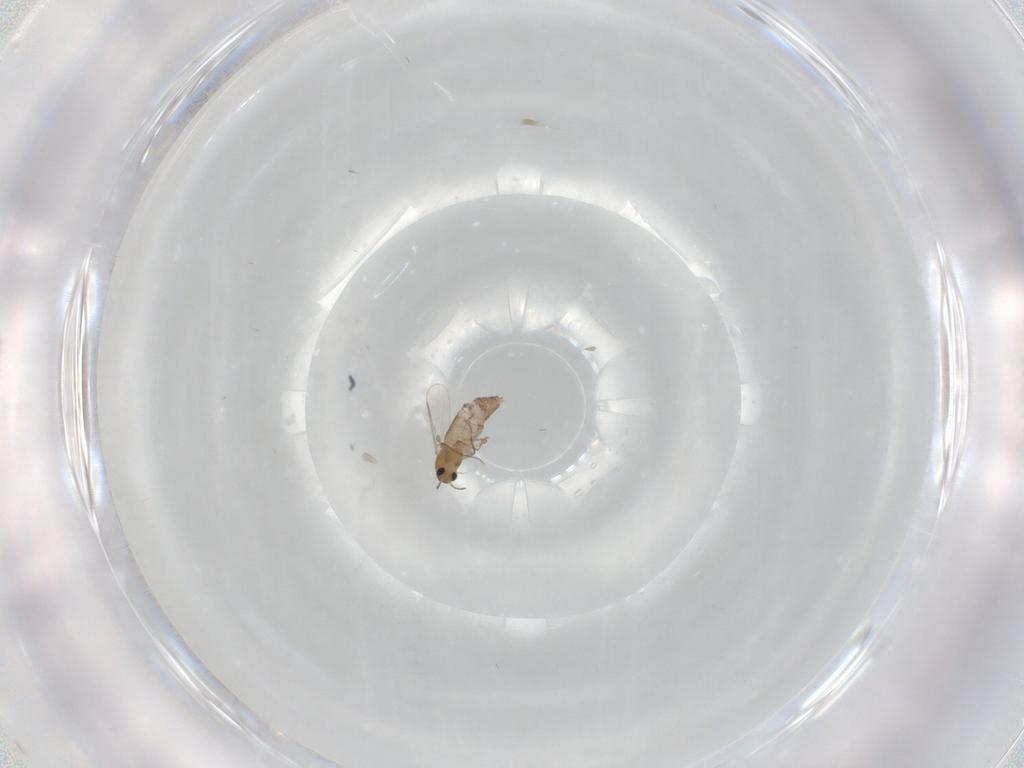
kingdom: Animalia
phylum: Arthropoda
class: Insecta
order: Diptera
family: Chironomidae
